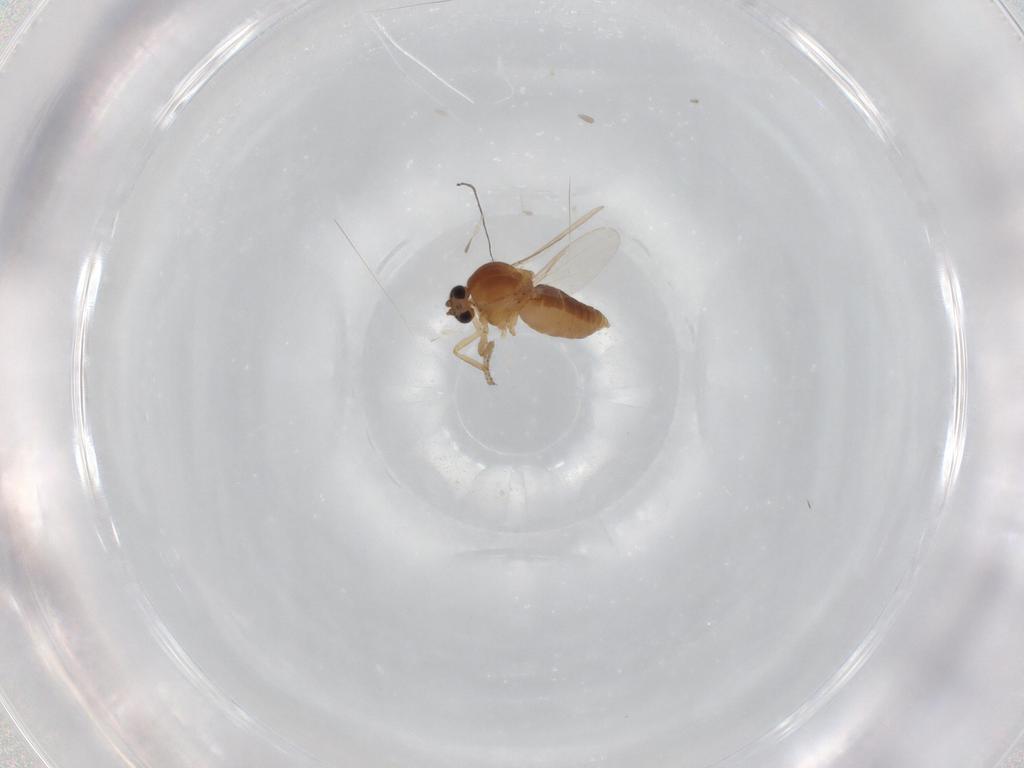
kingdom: Animalia
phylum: Arthropoda
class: Insecta
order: Diptera
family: Ceratopogonidae
